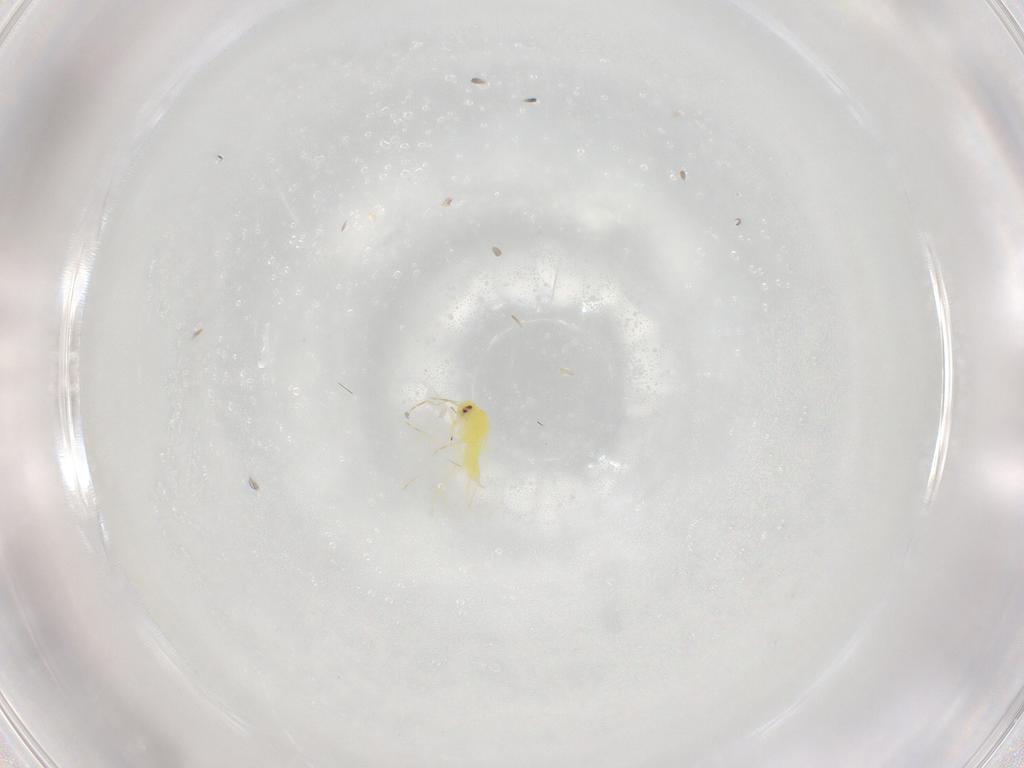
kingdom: Animalia
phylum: Arthropoda
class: Insecta
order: Hemiptera
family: Aleyrodidae
